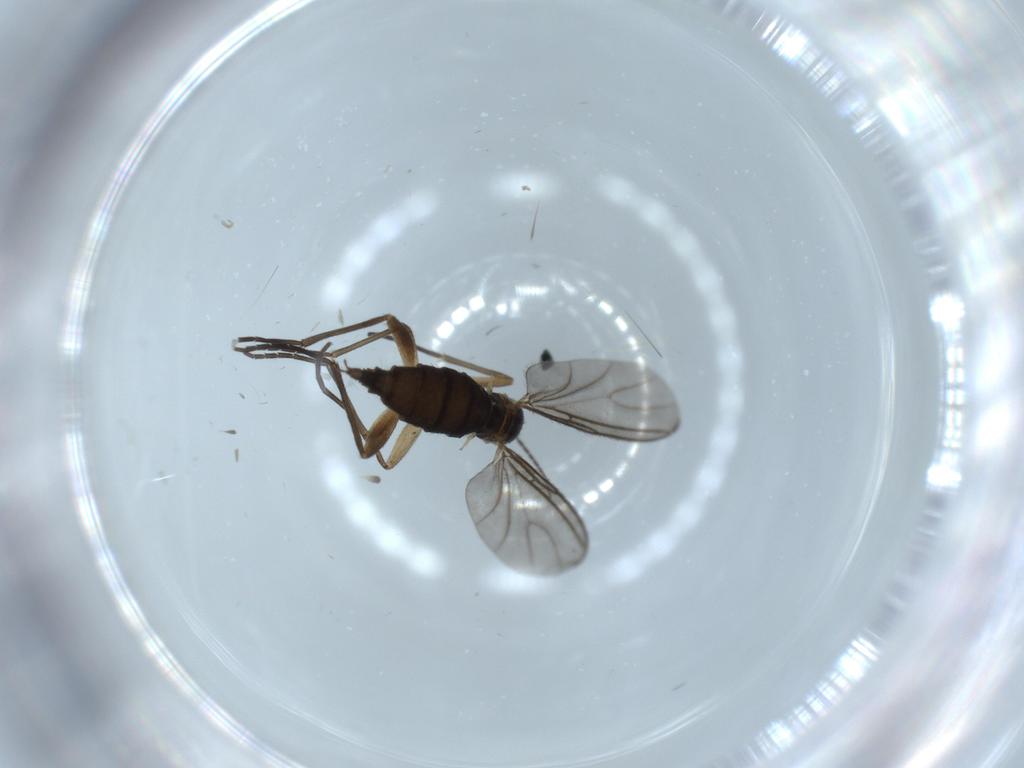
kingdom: Animalia
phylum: Arthropoda
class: Insecta
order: Diptera
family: Sciaridae
